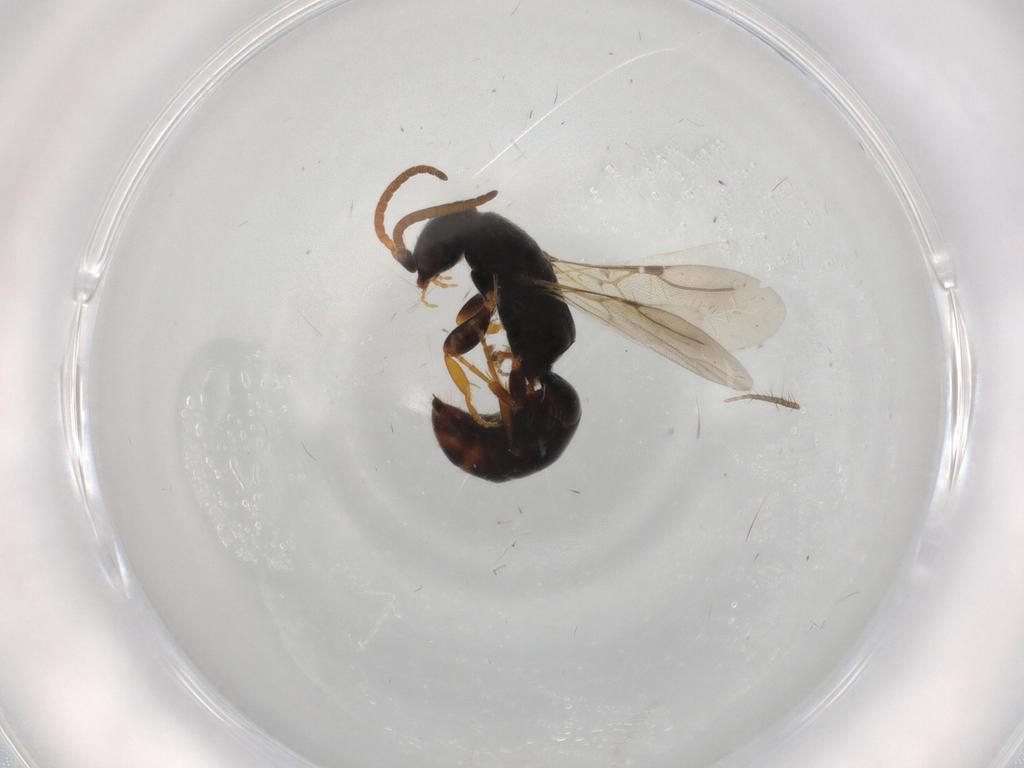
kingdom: Animalia
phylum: Arthropoda
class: Insecta
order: Hymenoptera
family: Bethylidae
